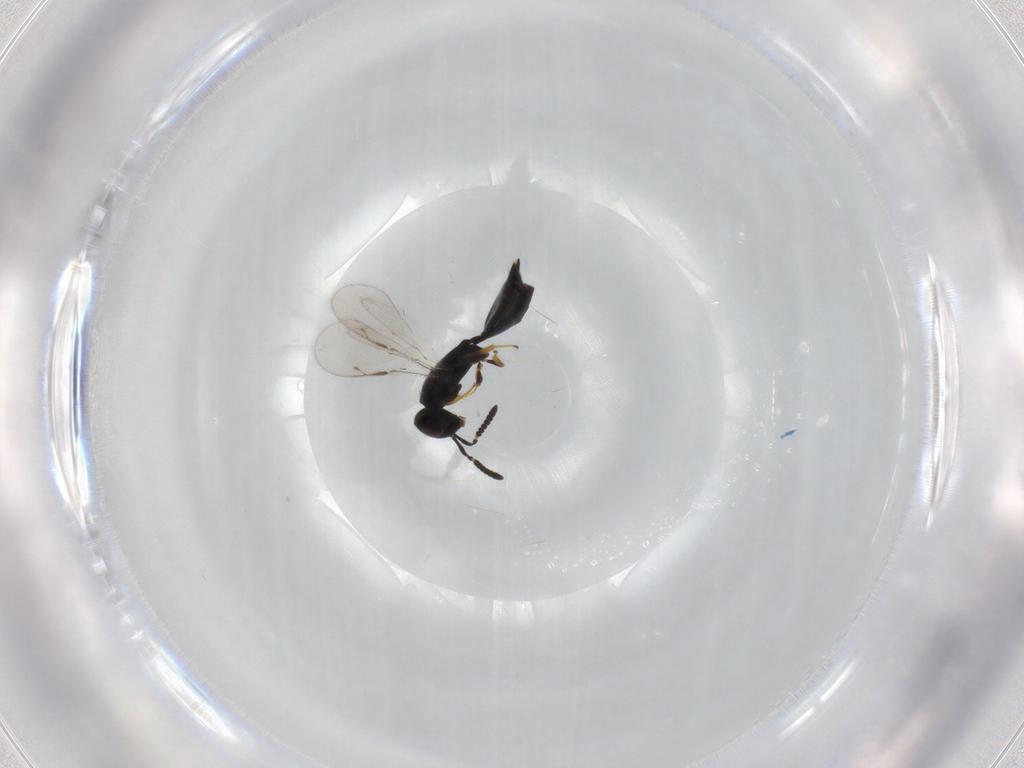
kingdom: Animalia
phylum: Arthropoda
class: Insecta
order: Hymenoptera
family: Pteromalidae
